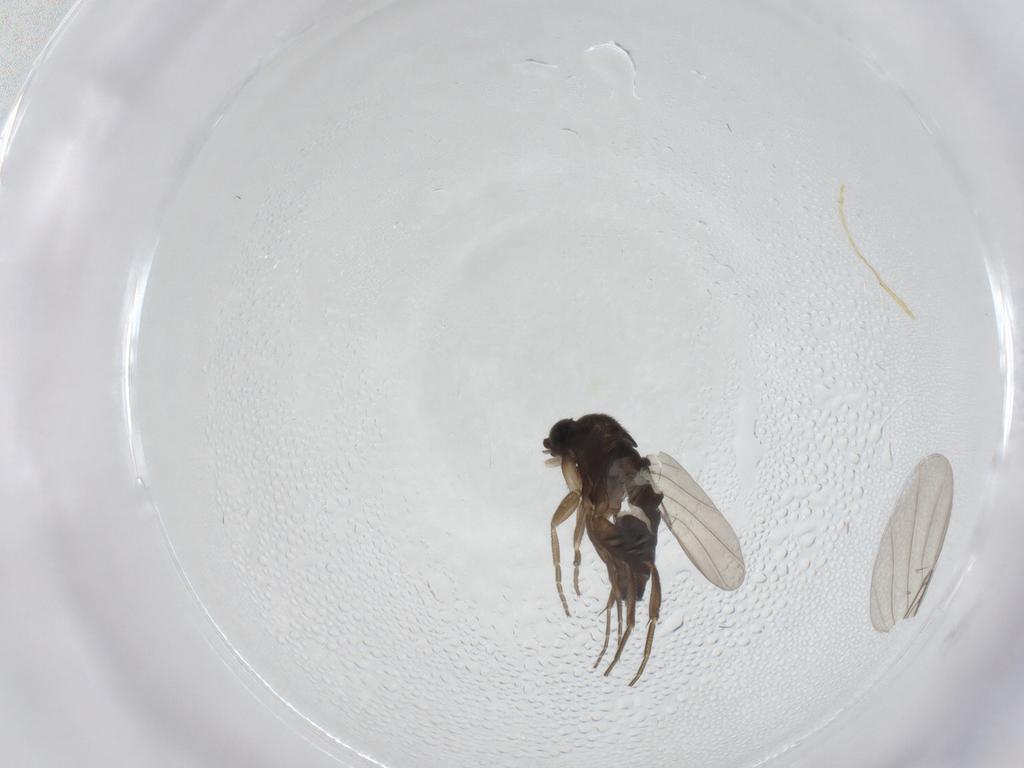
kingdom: Animalia
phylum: Arthropoda
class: Insecta
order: Diptera
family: Phoridae
